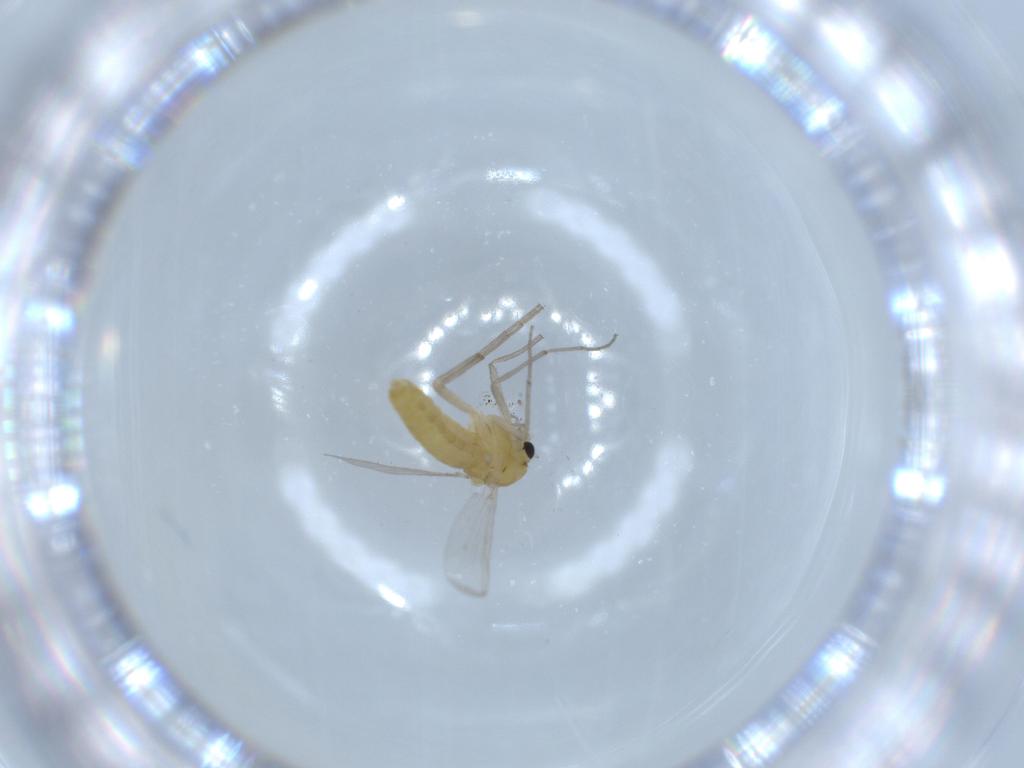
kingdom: Animalia
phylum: Arthropoda
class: Insecta
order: Diptera
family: Chironomidae
